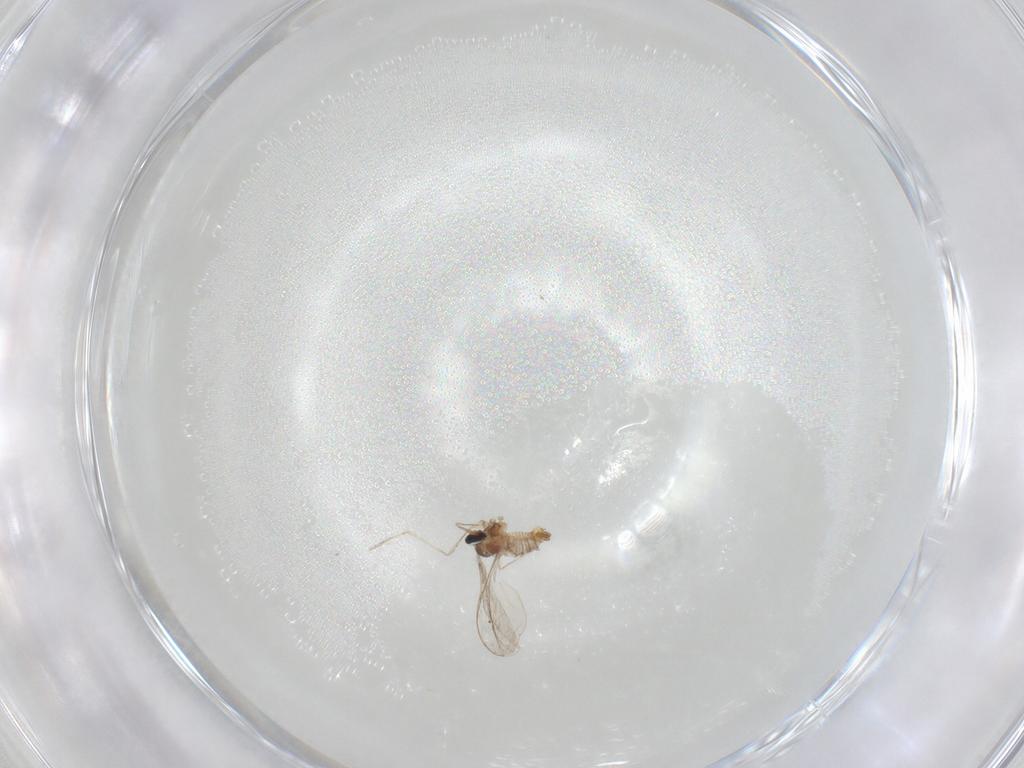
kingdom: Animalia
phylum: Arthropoda
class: Insecta
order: Diptera
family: Cecidomyiidae
